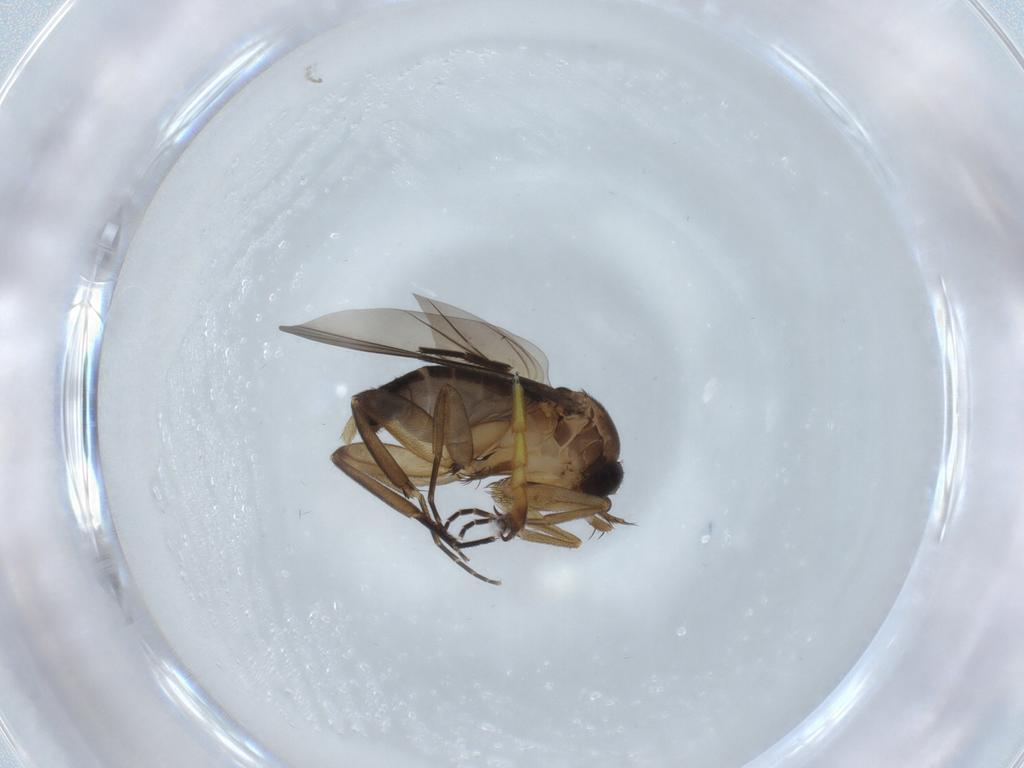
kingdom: Animalia
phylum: Arthropoda
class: Insecta
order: Diptera
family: Phoridae
